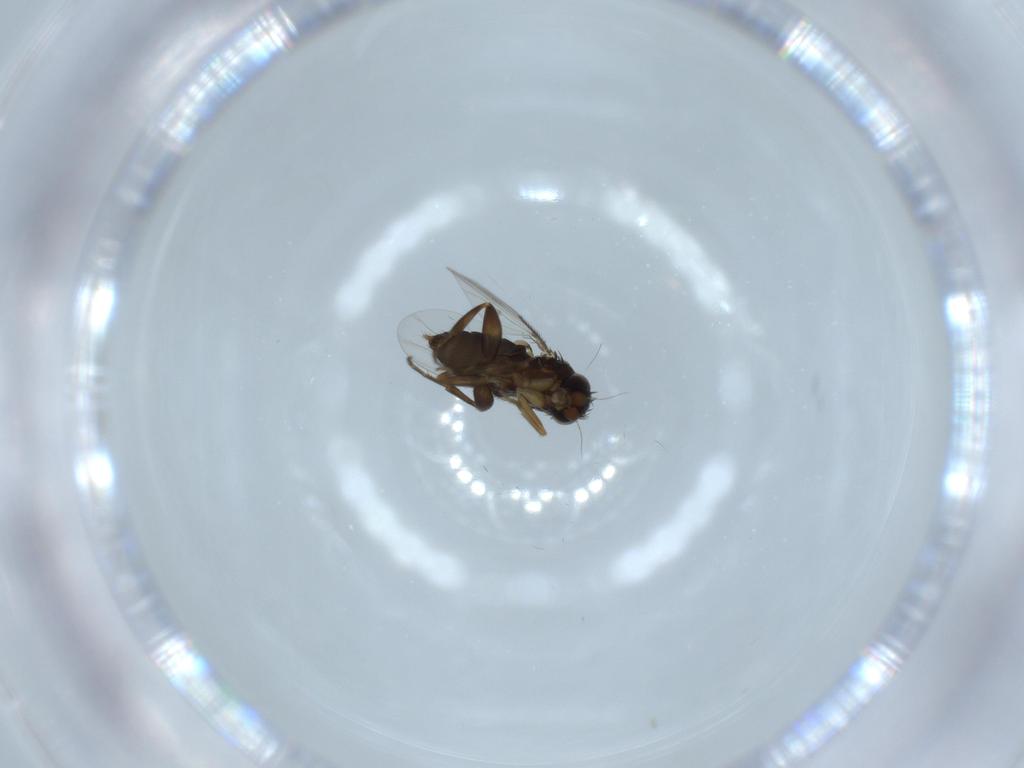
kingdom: Animalia
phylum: Arthropoda
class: Insecta
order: Diptera
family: Phoridae
